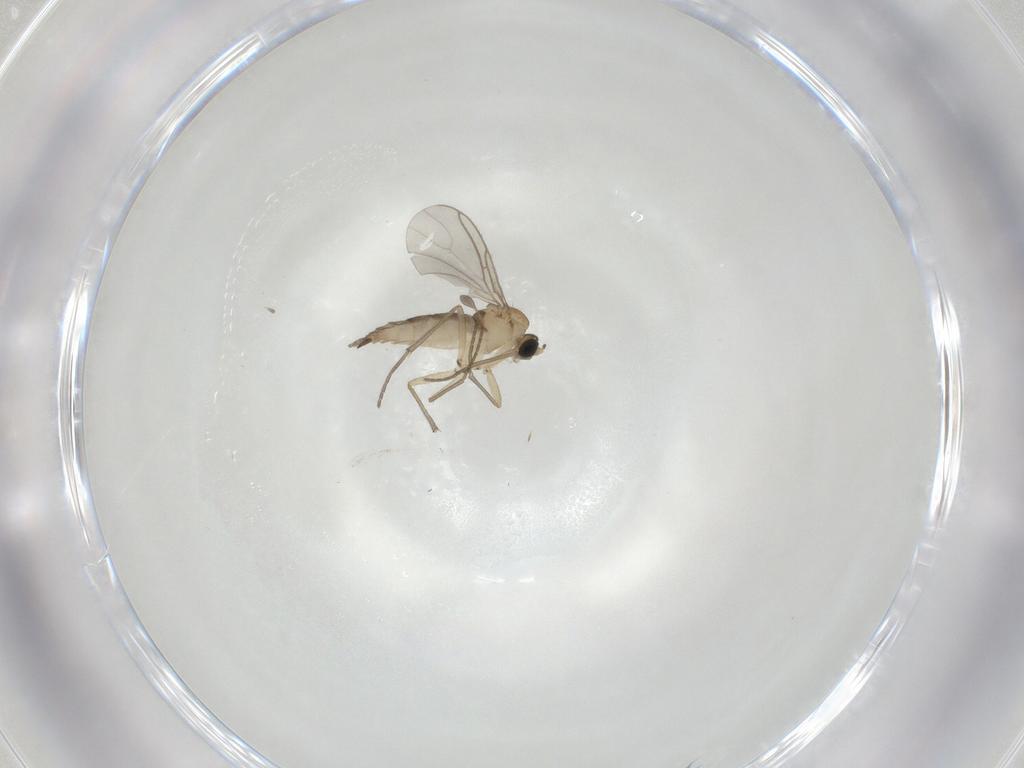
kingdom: Animalia
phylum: Arthropoda
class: Insecta
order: Diptera
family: Sciaridae
